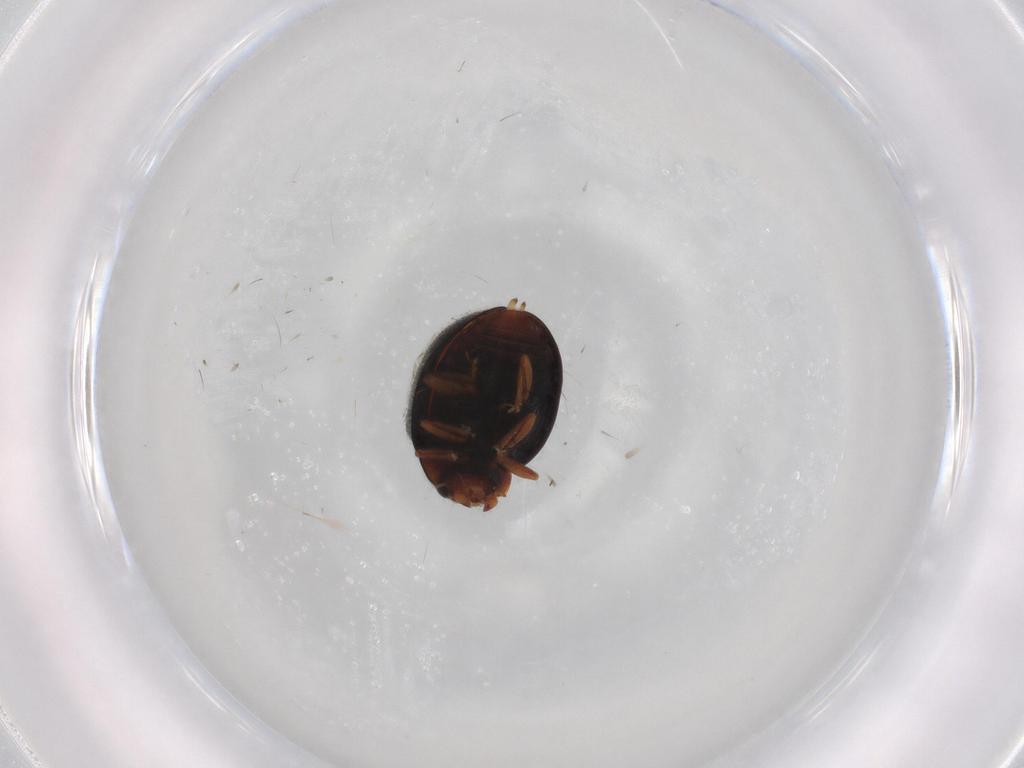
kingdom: Animalia
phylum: Arthropoda
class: Insecta
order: Coleoptera
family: Coccinellidae
